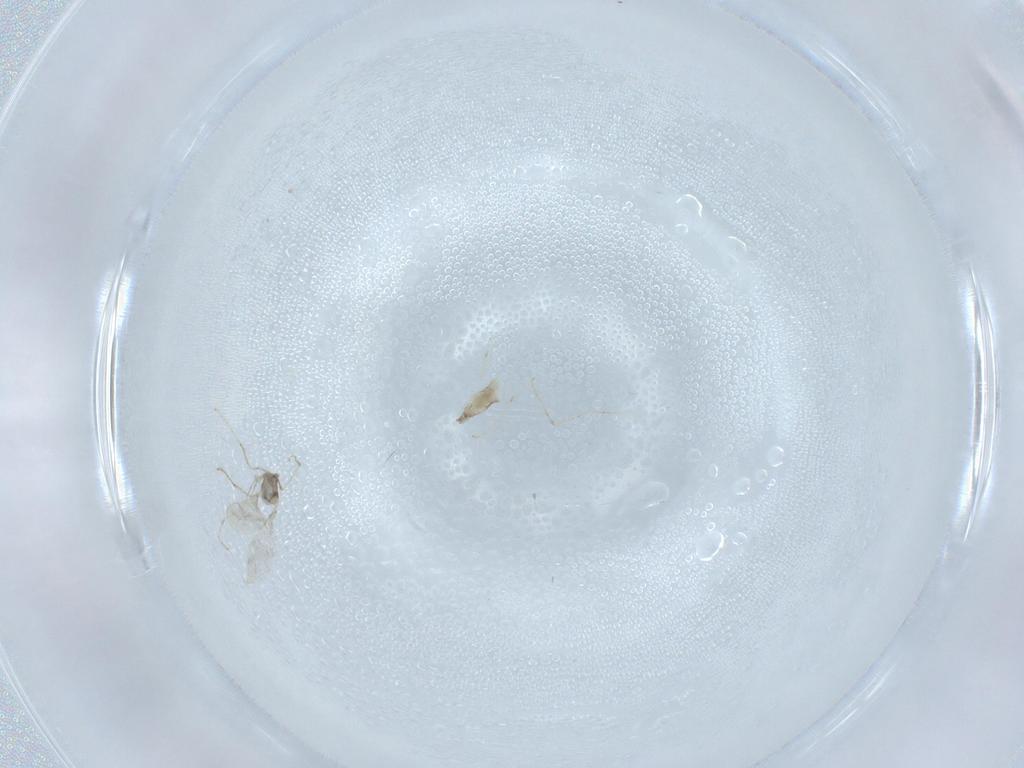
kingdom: Animalia
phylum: Arthropoda
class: Insecta
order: Diptera
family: Cecidomyiidae
